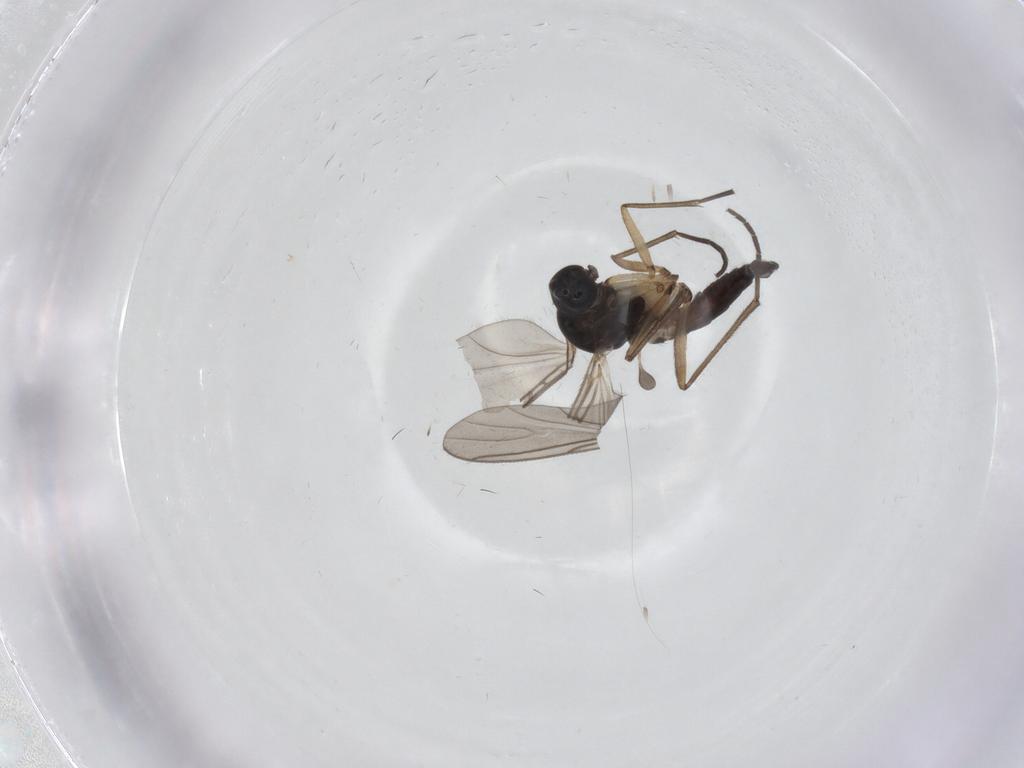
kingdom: Animalia
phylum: Arthropoda
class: Insecta
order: Diptera
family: Sciaridae
